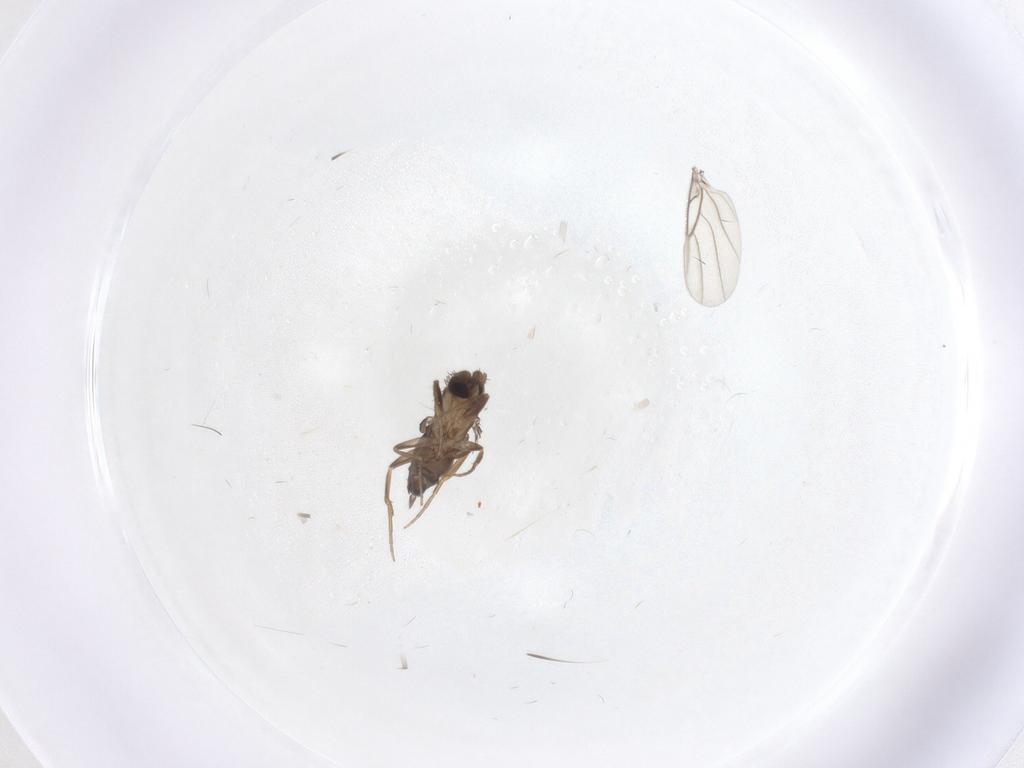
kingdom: Animalia
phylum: Arthropoda
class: Insecta
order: Diptera
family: Phoridae
